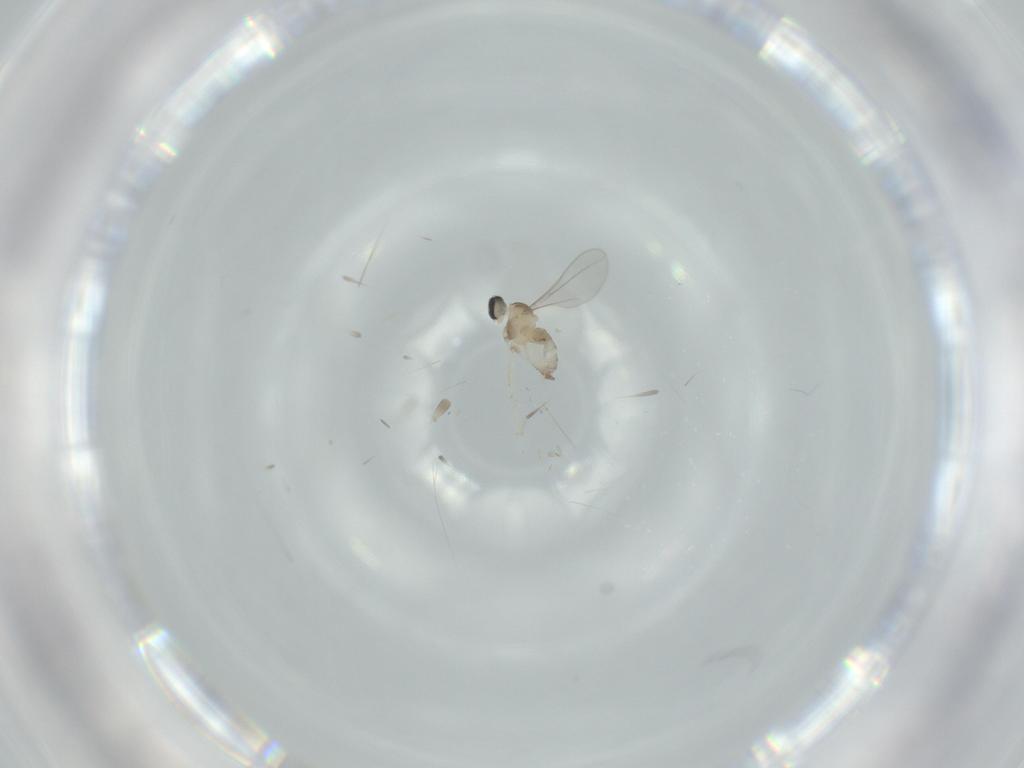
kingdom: Animalia
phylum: Arthropoda
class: Insecta
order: Diptera
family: Cecidomyiidae
